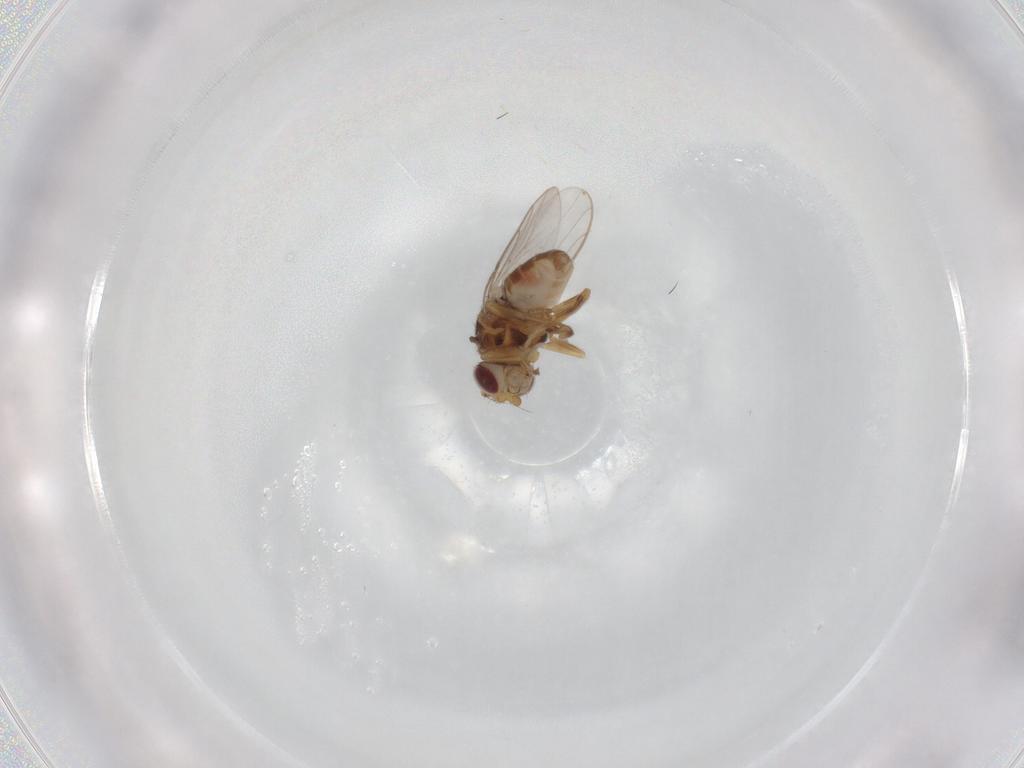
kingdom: Animalia
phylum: Arthropoda
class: Insecta
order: Diptera
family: Chloropidae
